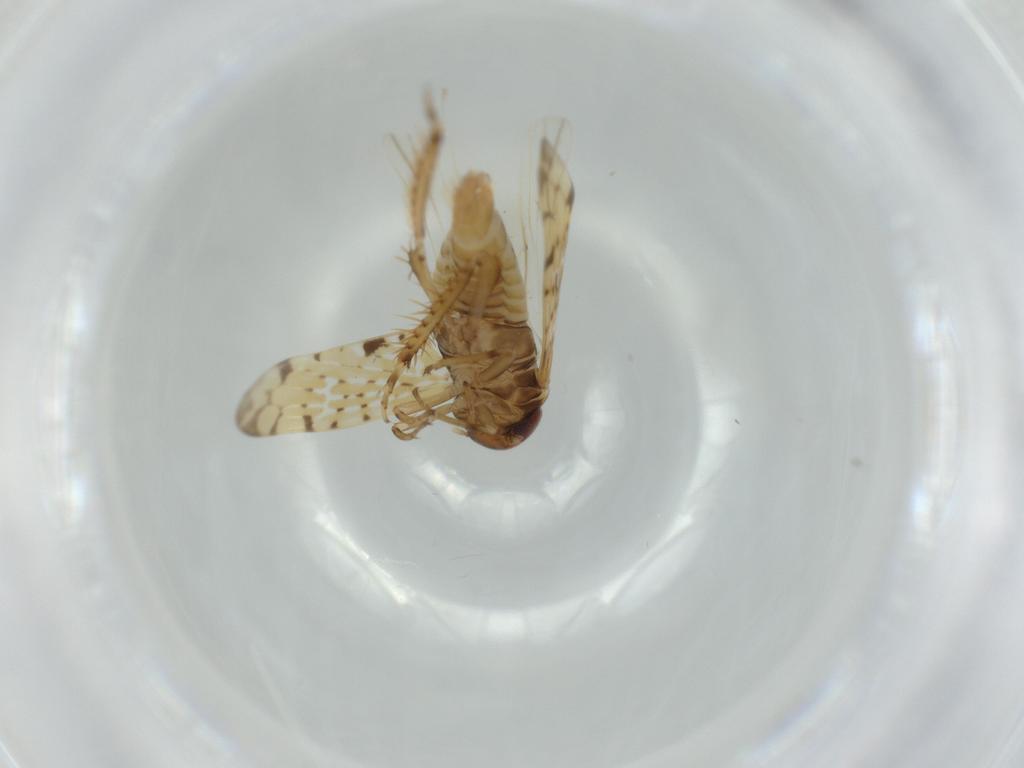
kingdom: Animalia
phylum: Arthropoda
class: Insecta
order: Hemiptera
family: Cicadellidae
